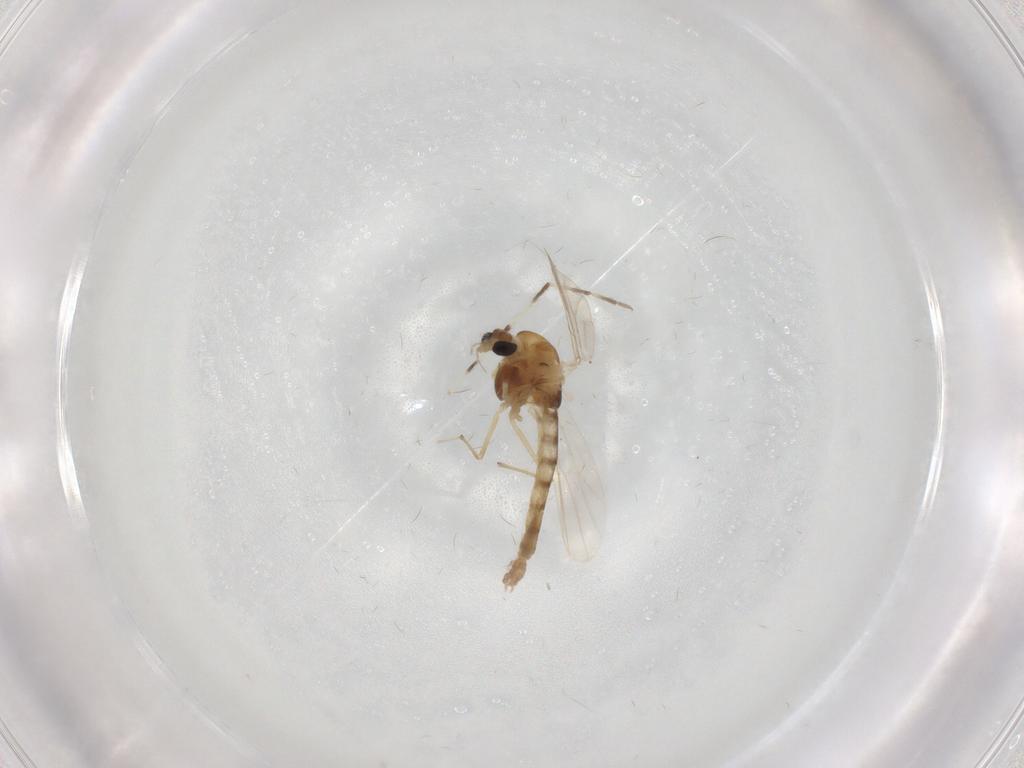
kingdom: Animalia
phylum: Arthropoda
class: Insecta
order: Diptera
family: Chironomidae
